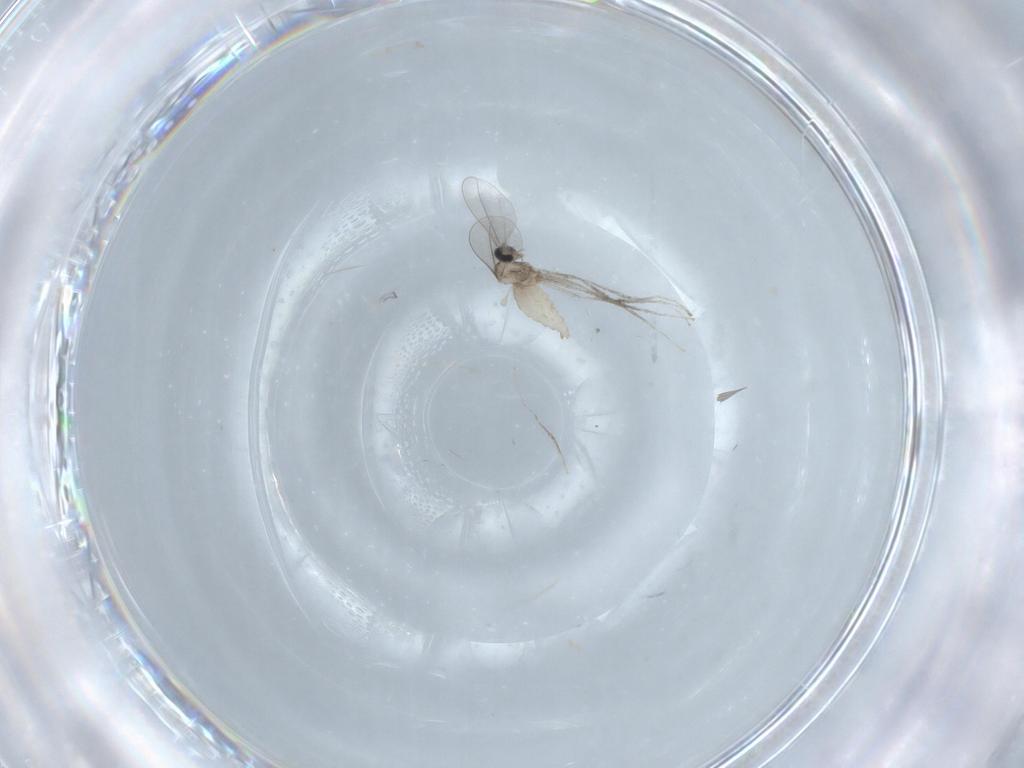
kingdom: Animalia
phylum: Arthropoda
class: Insecta
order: Diptera
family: Cecidomyiidae
